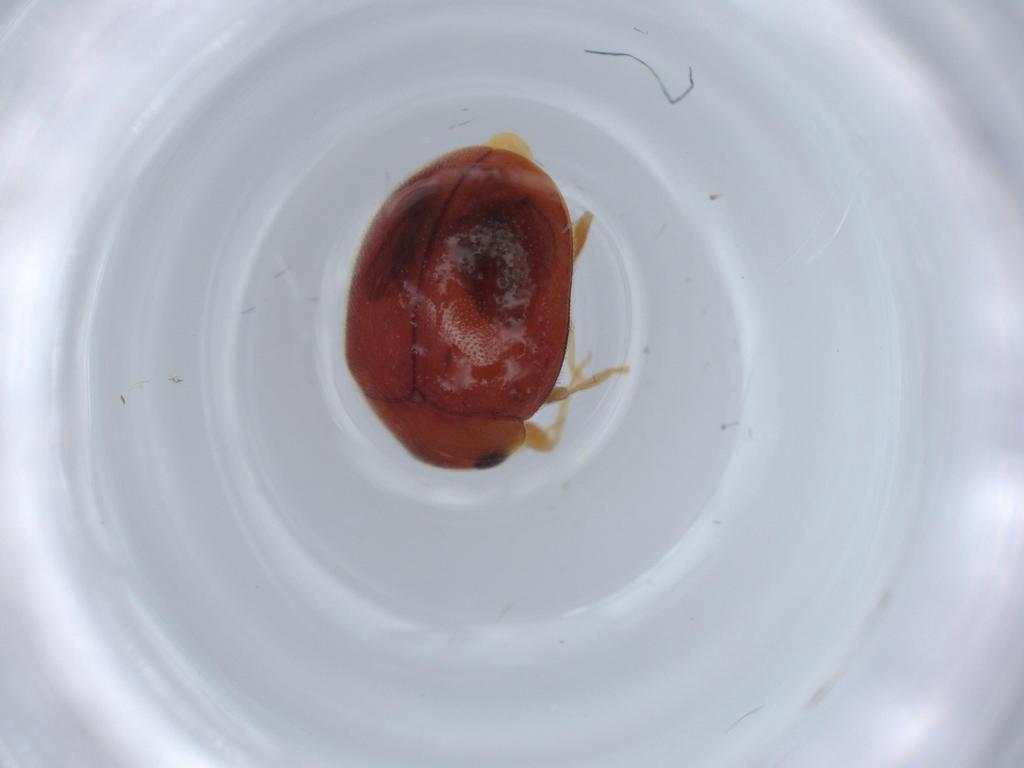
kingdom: Animalia
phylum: Arthropoda
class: Insecta
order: Coleoptera
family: Coccinellidae
